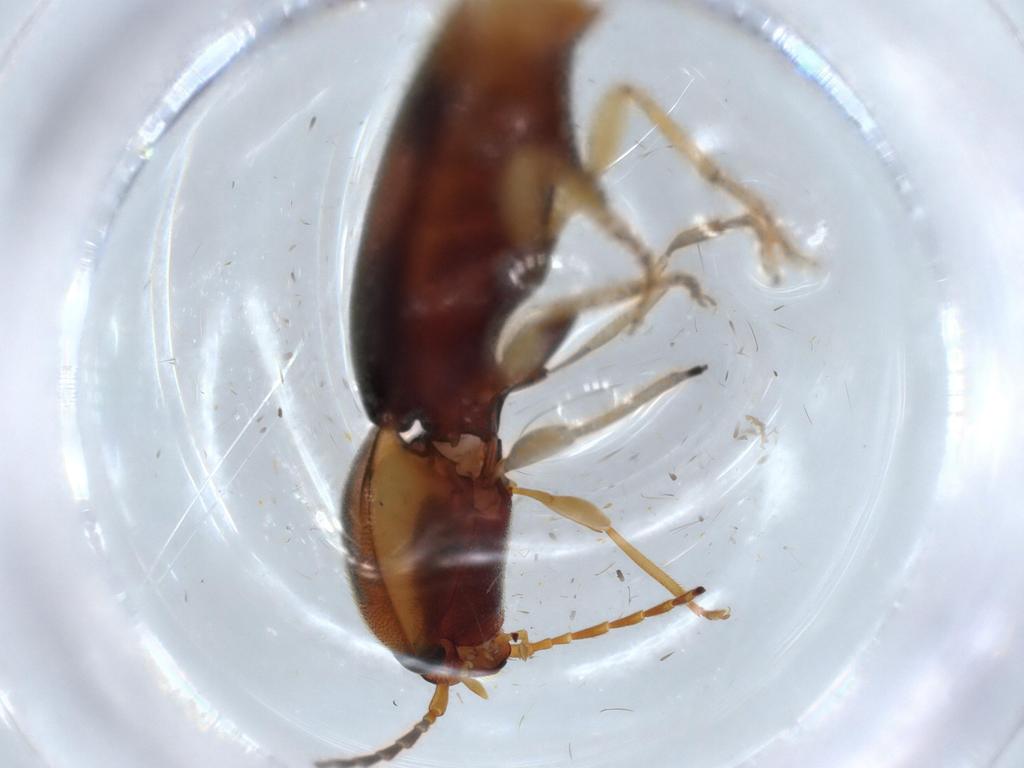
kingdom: Animalia
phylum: Arthropoda
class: Insecta
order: Coleoptera
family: Elateridae
